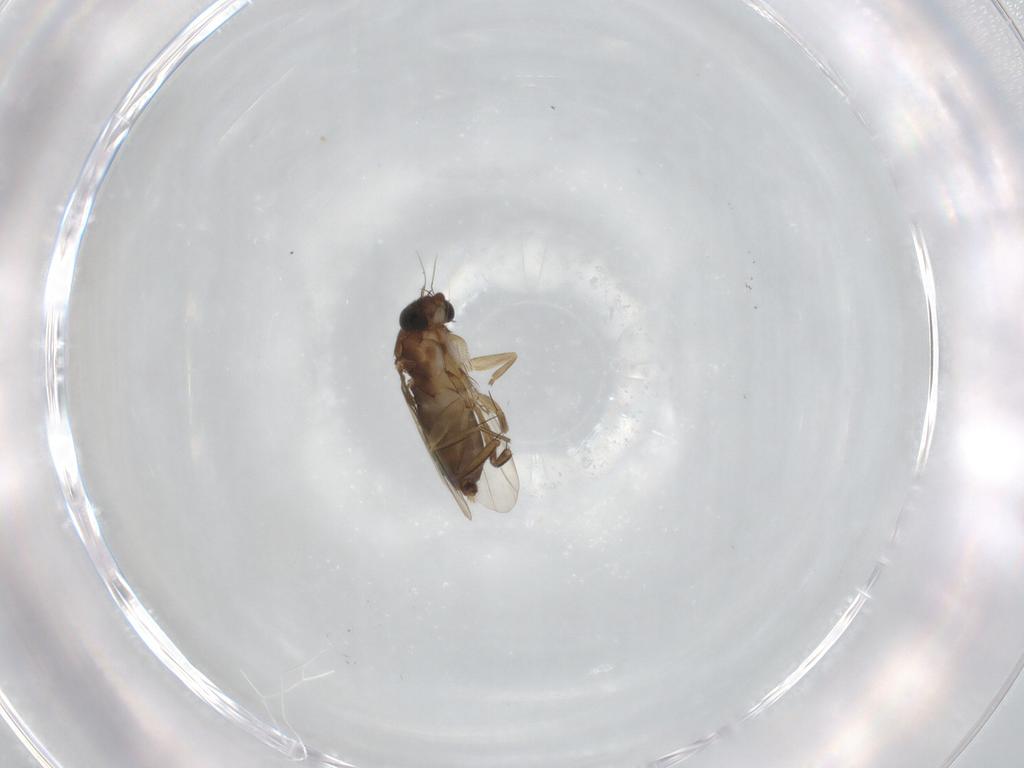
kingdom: Animalia
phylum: Arthropoda
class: Insecta
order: Diptera
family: Phoridae
